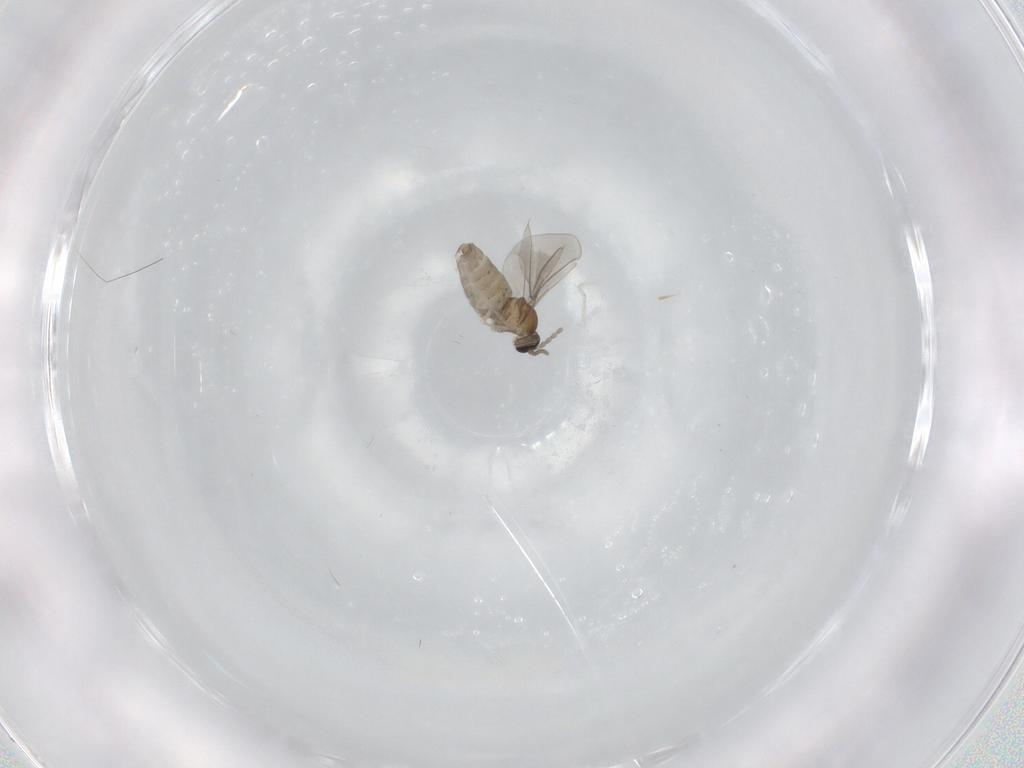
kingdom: Animalia
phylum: Arthropoda
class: Insecta
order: Diptera
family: Cecidomyiidae
